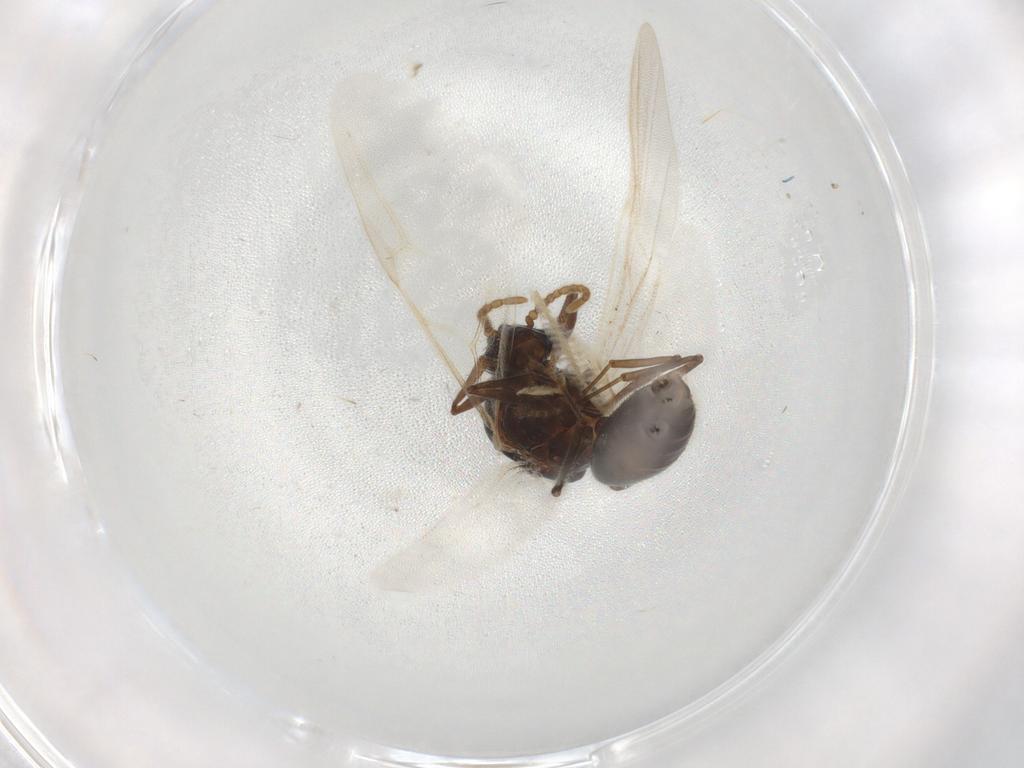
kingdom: Animalia
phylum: Arthropoda
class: Insecta
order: Hymenoptera
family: Formicidae
